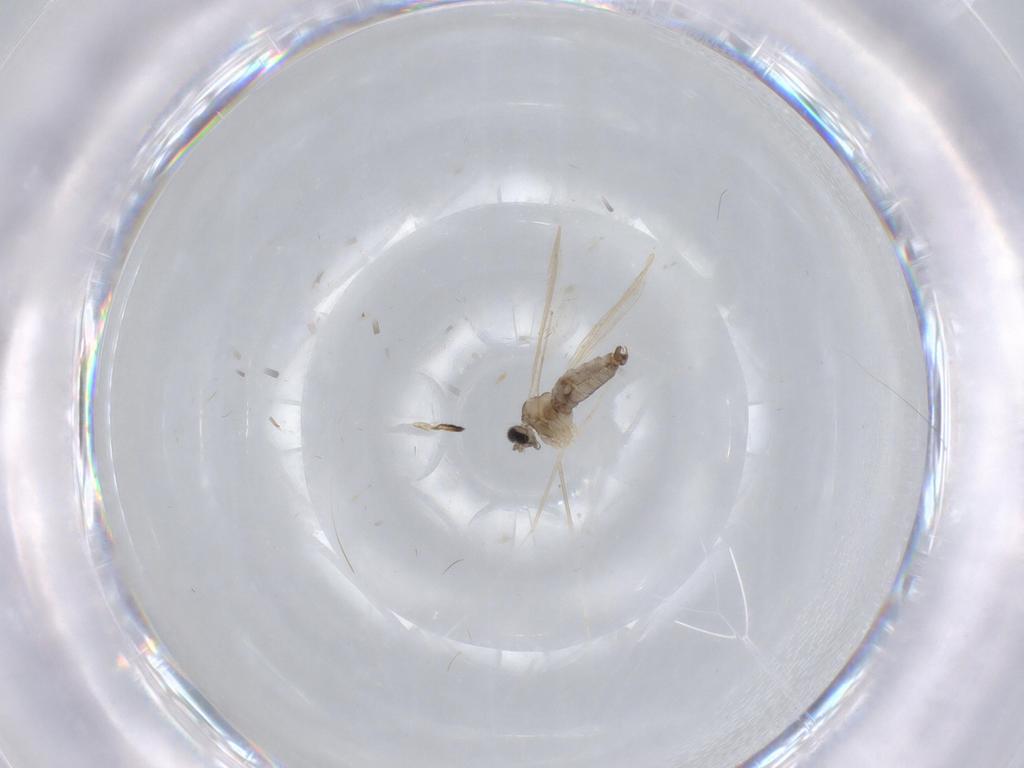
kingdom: Animalia
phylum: Arthropoda
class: Insecta
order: Diptera
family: Cecidomyiidae
